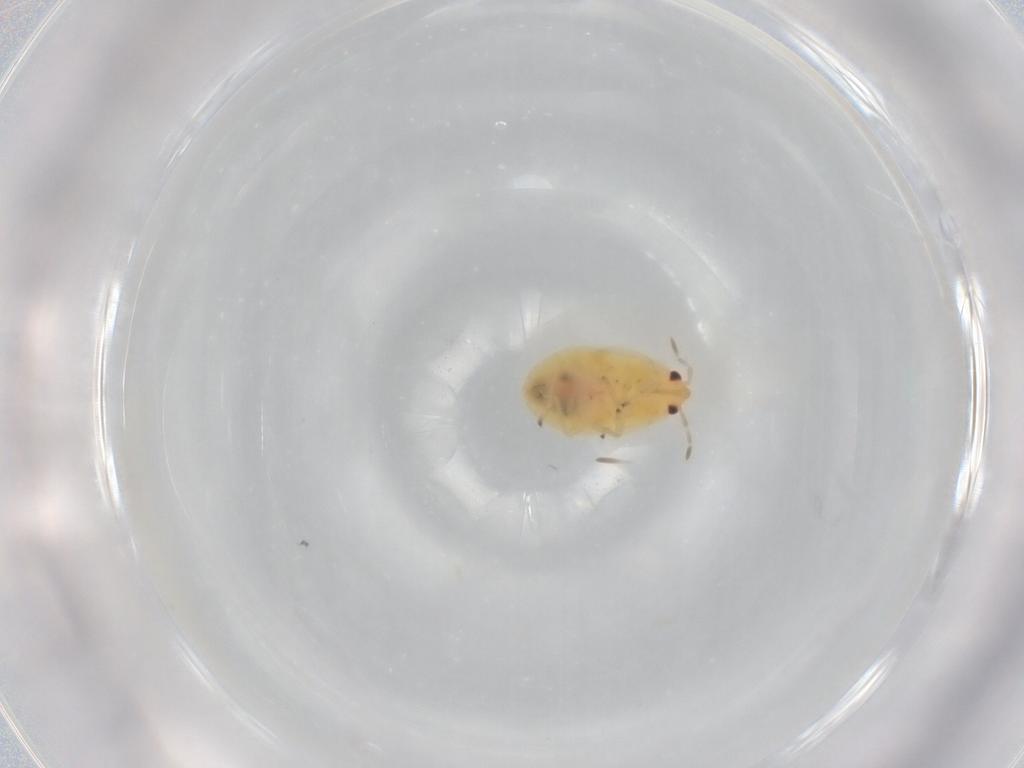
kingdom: Animalia
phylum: Arthropoda
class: Insecta
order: Hemiptera
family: Anthocoridae
